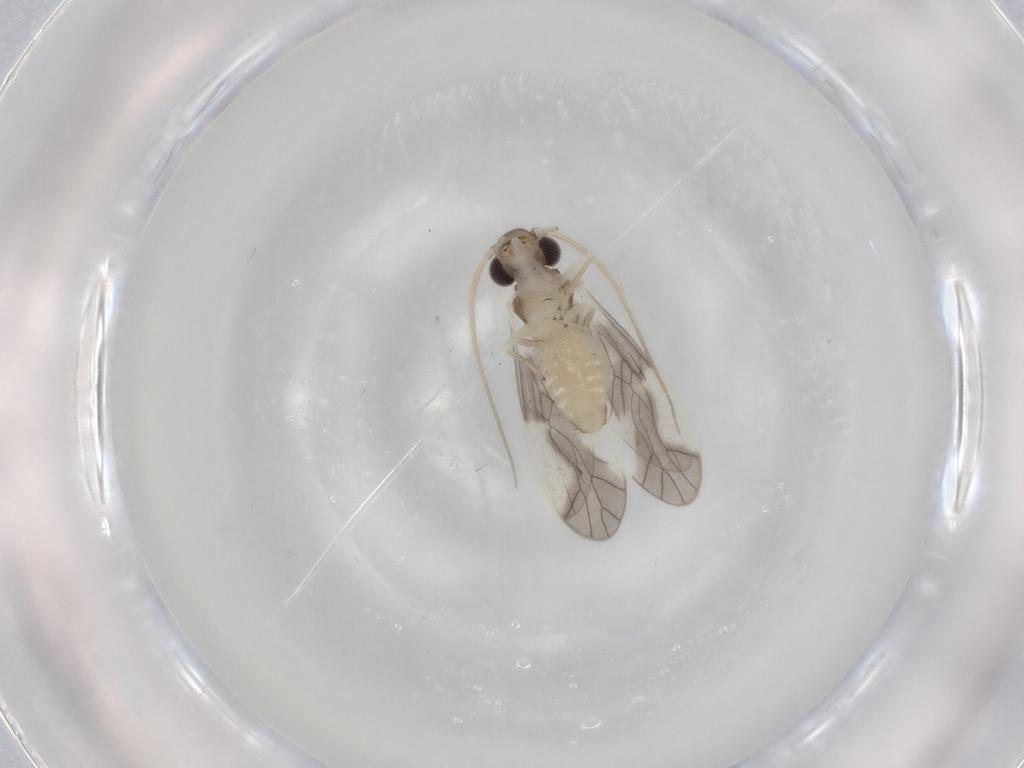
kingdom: Animalia
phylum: Arthropoda
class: Insecta
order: Psocodea
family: Caeciliusidae
